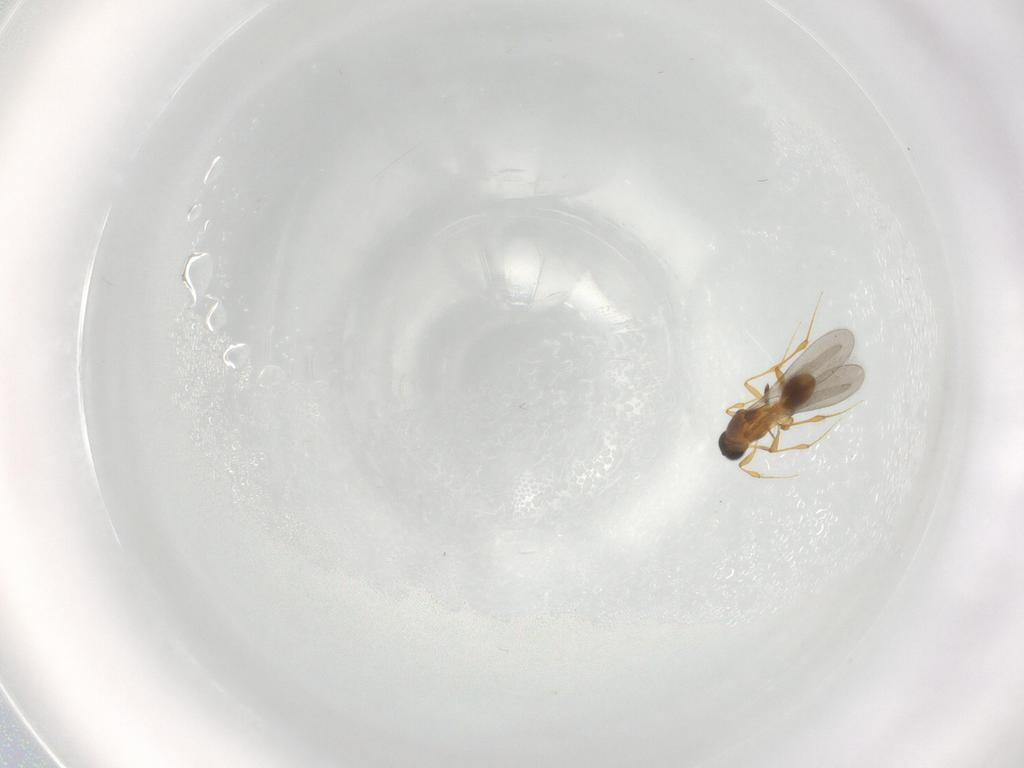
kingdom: Animalia
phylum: Arthropoda
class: Insecta
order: Hymenoptera
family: Platygastridae
